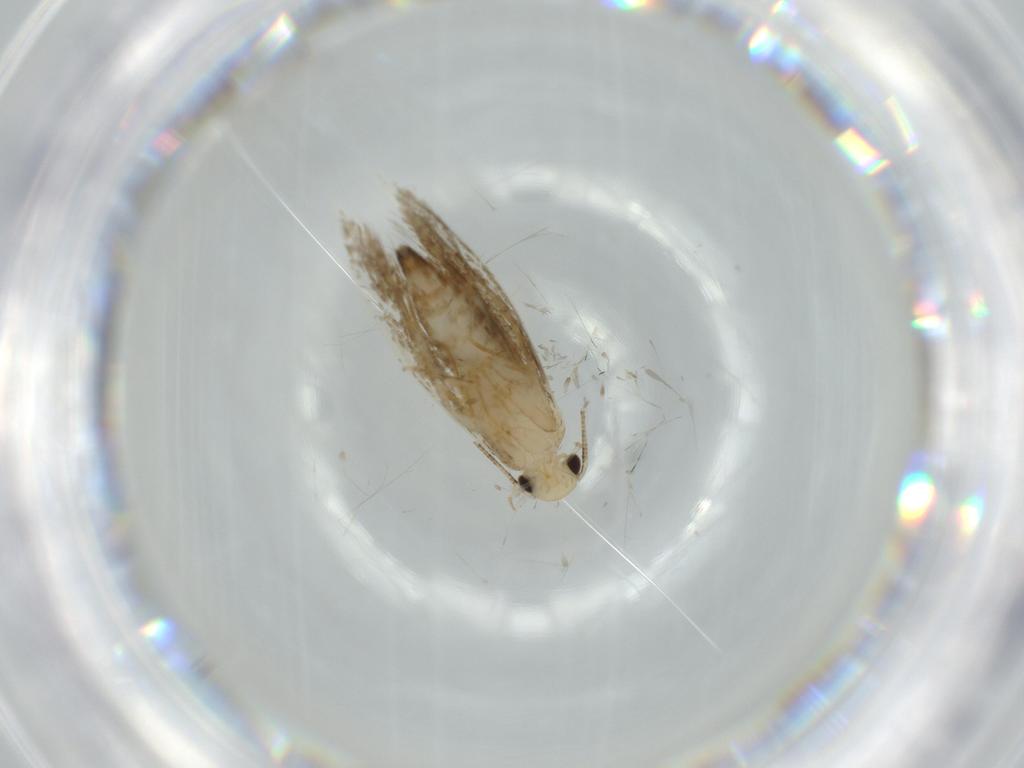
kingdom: Animalia
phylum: Arthropoda
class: Insecta
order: Lepidoptera
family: Tineidae
